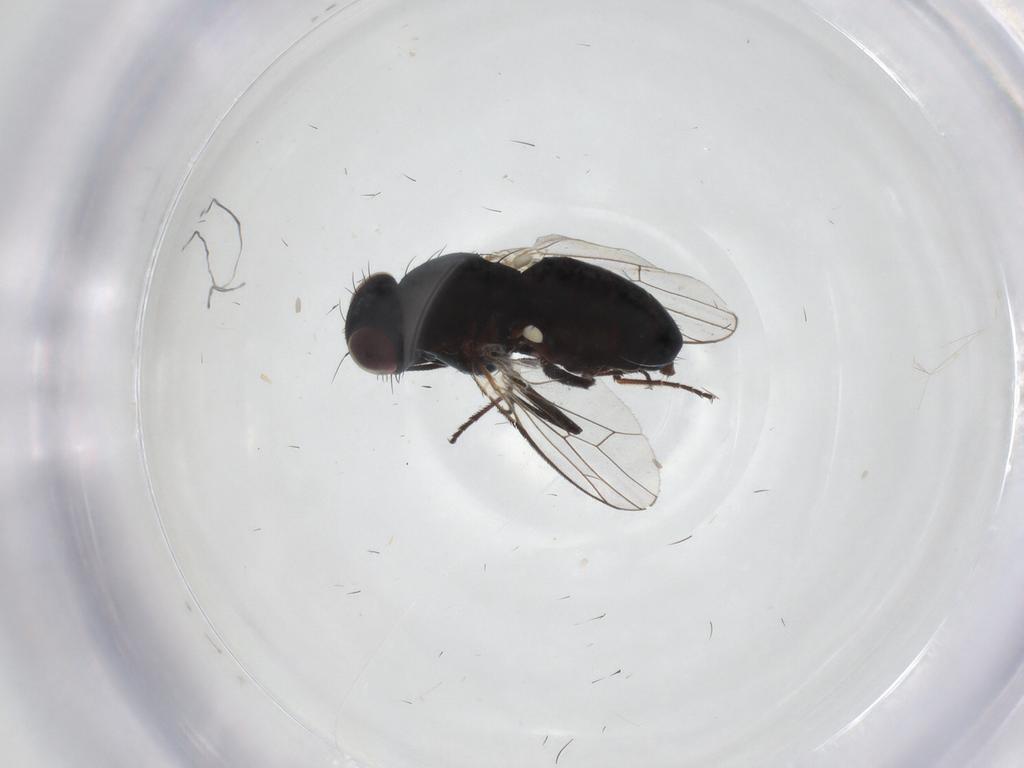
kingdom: Animalia
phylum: Arthropoda
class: Insecta
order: Diptera
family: Carnidae
